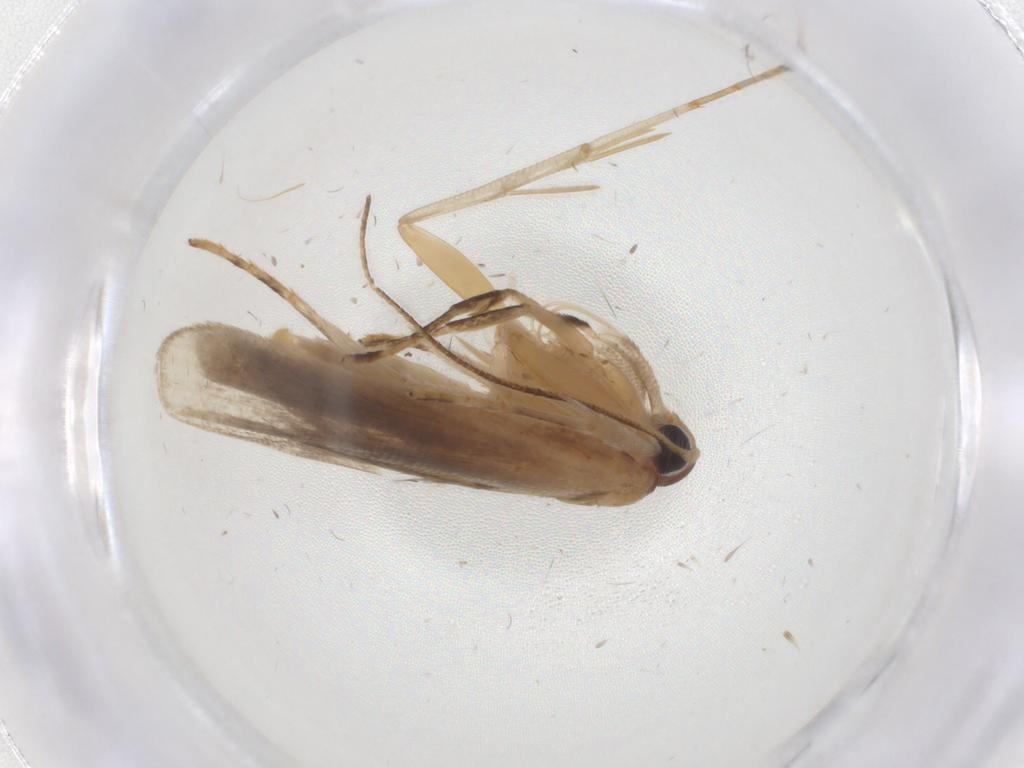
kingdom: Animalia
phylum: Arthropoda
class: Insecta
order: Lepidoptera
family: Gelechiidae
